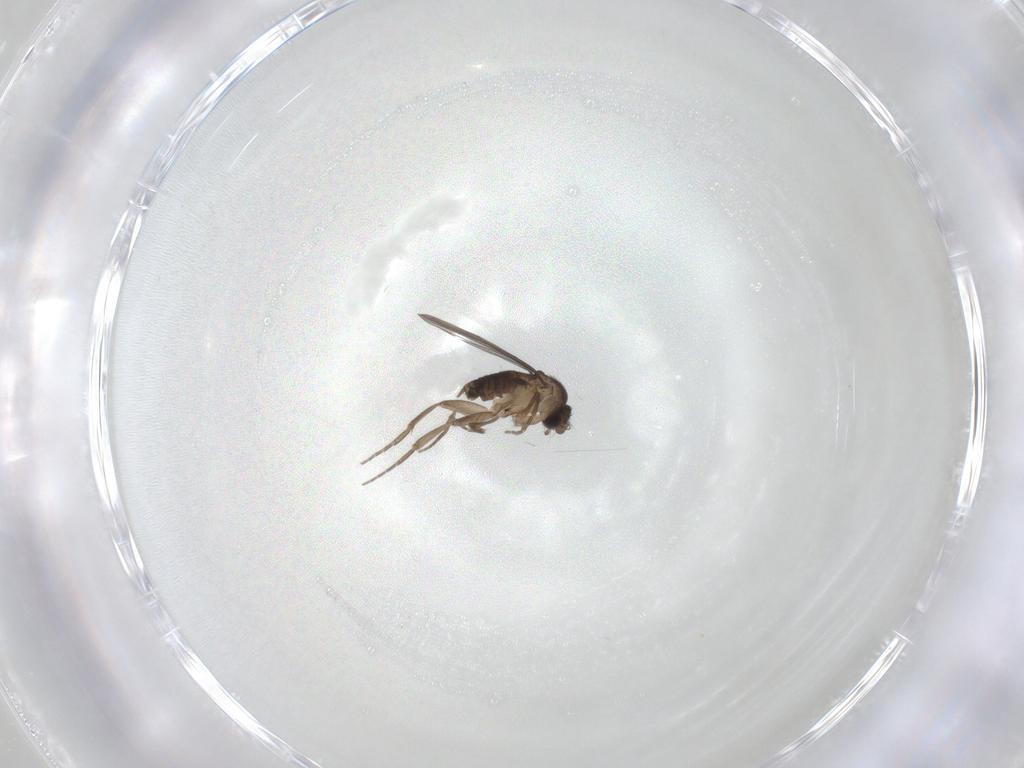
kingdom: Animalia
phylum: Arthropoda
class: Insecta
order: Diptera
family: Phoridae
